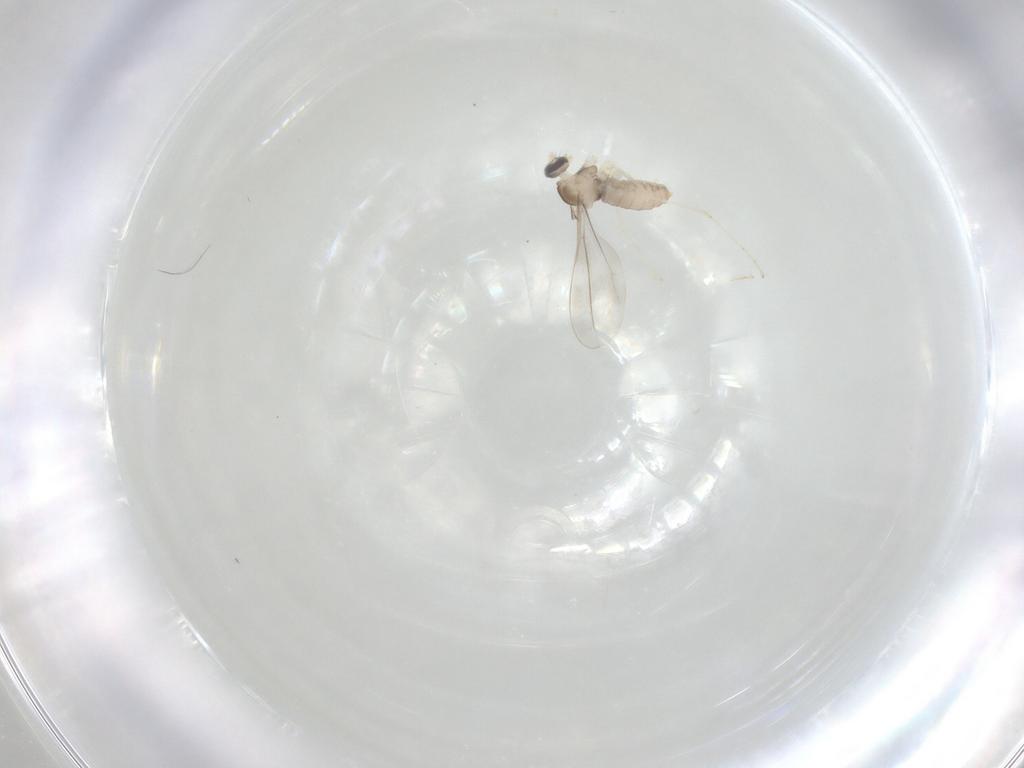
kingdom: Animalia
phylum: Arthropoda
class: Insecta
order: Diptera
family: Cecidomyiidae
